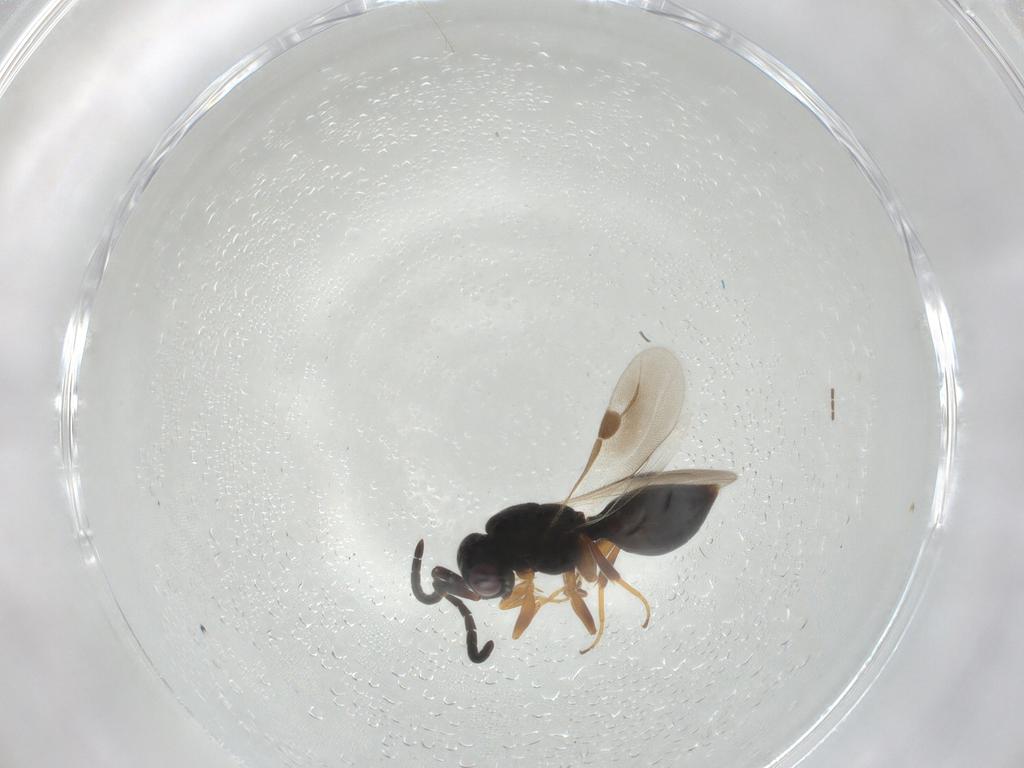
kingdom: Animalia
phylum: Arthropoda
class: Insecta
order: Hymenoptera
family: Megaspilidae
